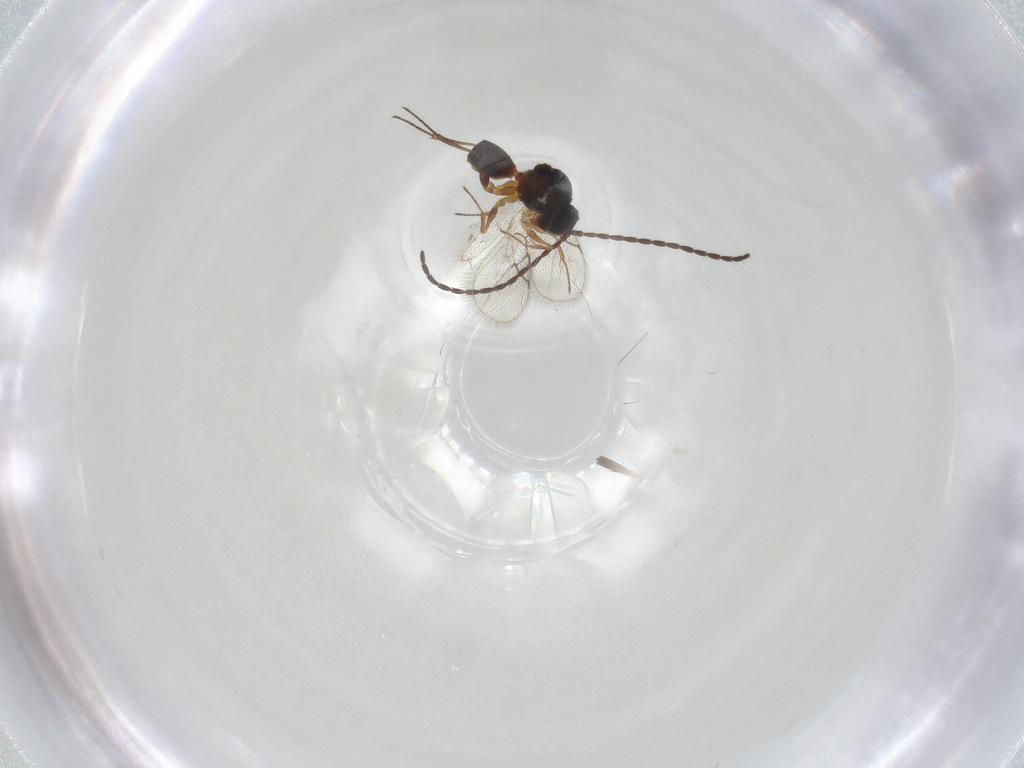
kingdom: Animalia
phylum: Arthropoda
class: Insecta
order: Hymenoptera
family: Figitidae
